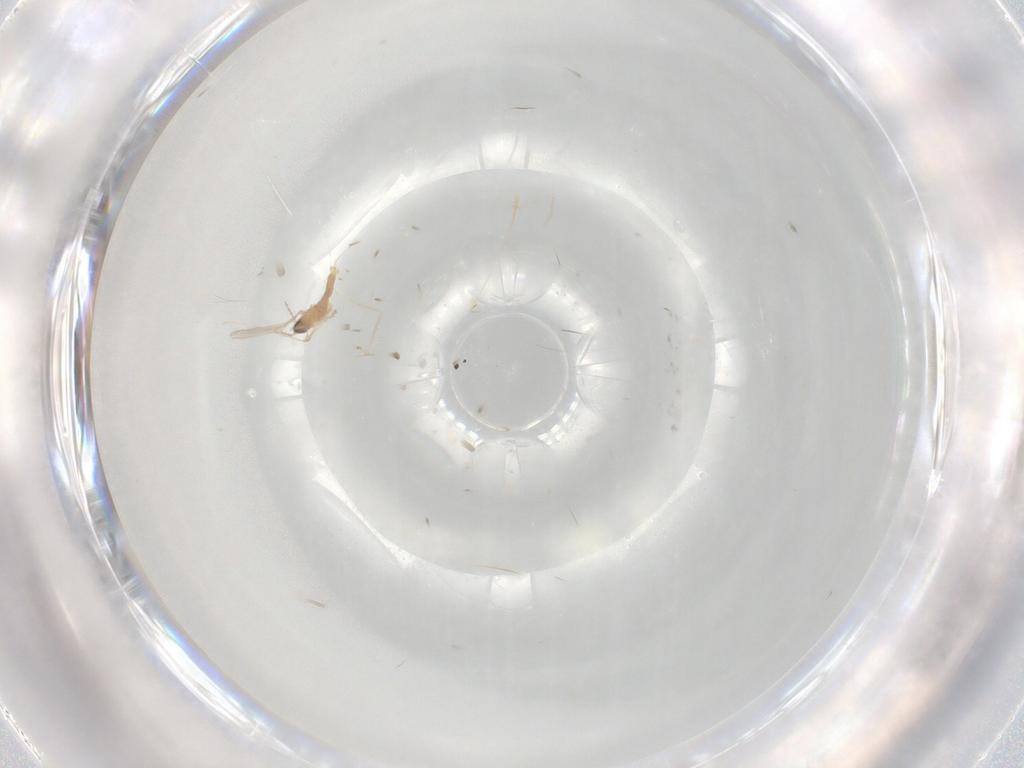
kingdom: Animalia
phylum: Arthropoda
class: Insecta
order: Diptera
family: Cecidomyiidae
